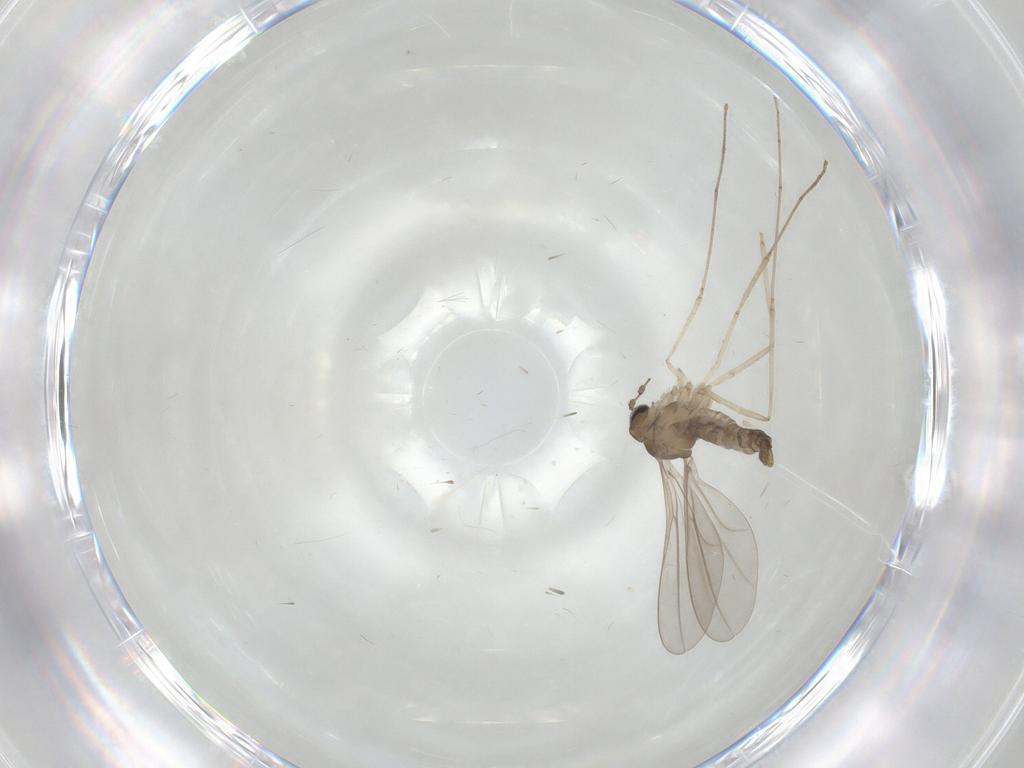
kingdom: Animalia
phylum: Arthropoda
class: Insecta
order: Diptera
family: Cecidomyiidae
